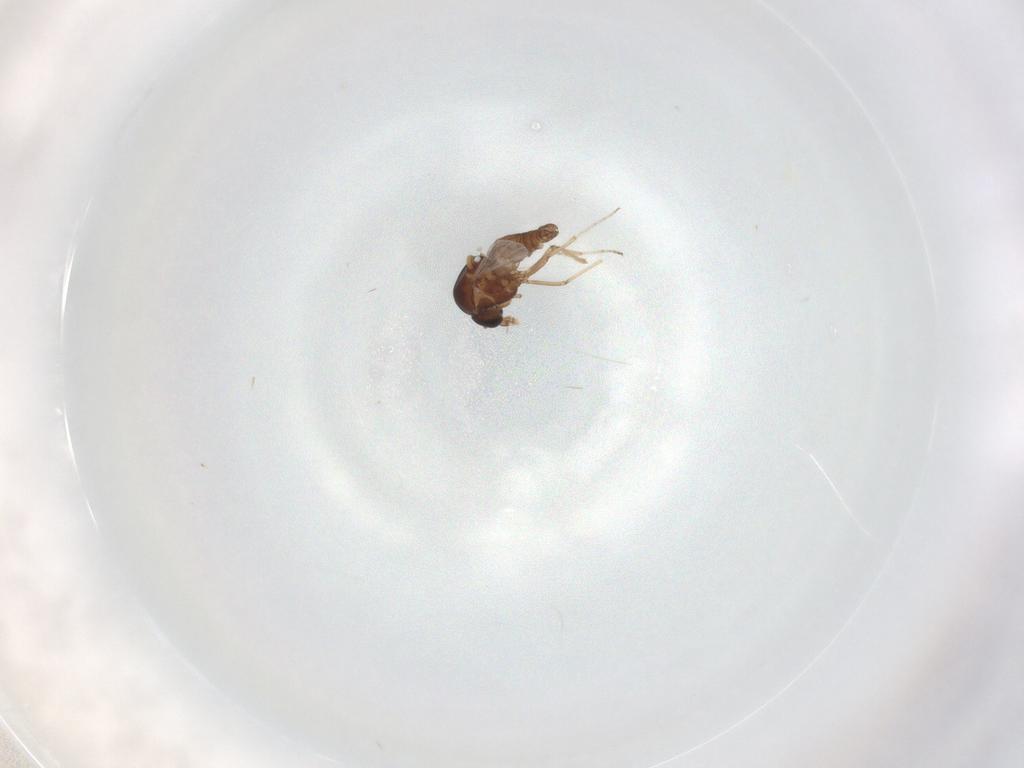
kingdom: Animalia
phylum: Arthropoda
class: Insecta
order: Diptera
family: Ceratopogonidae
